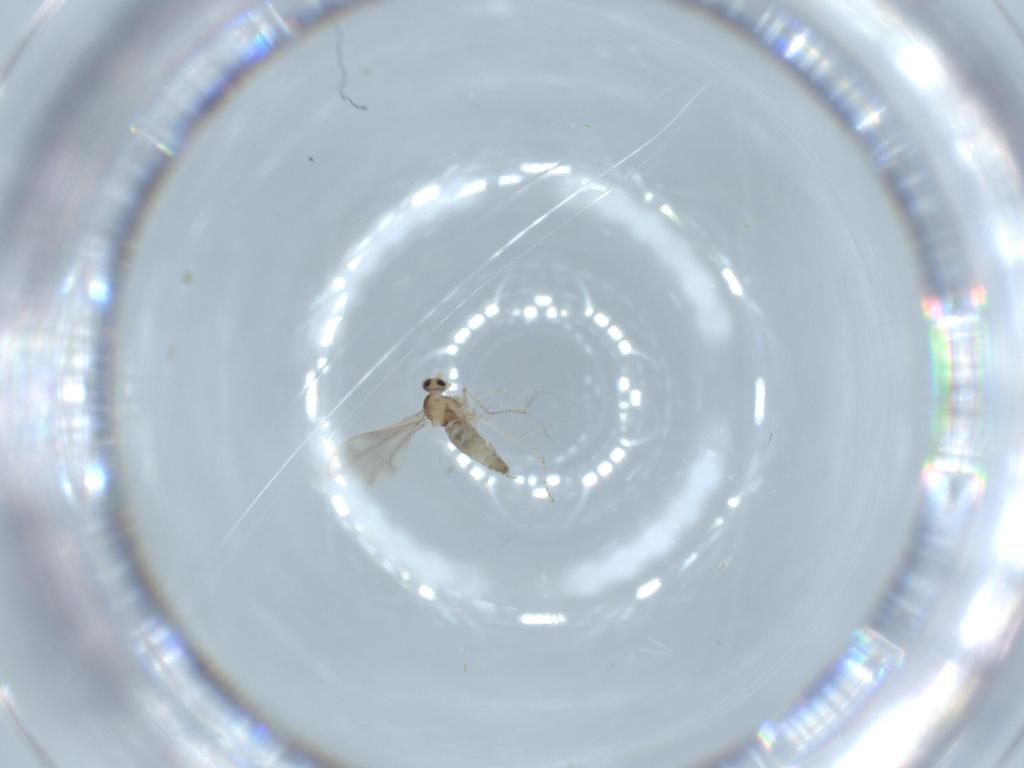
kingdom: Animalia
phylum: Arthropoda
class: Insecta
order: Diptera
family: Cecidomyiidae
